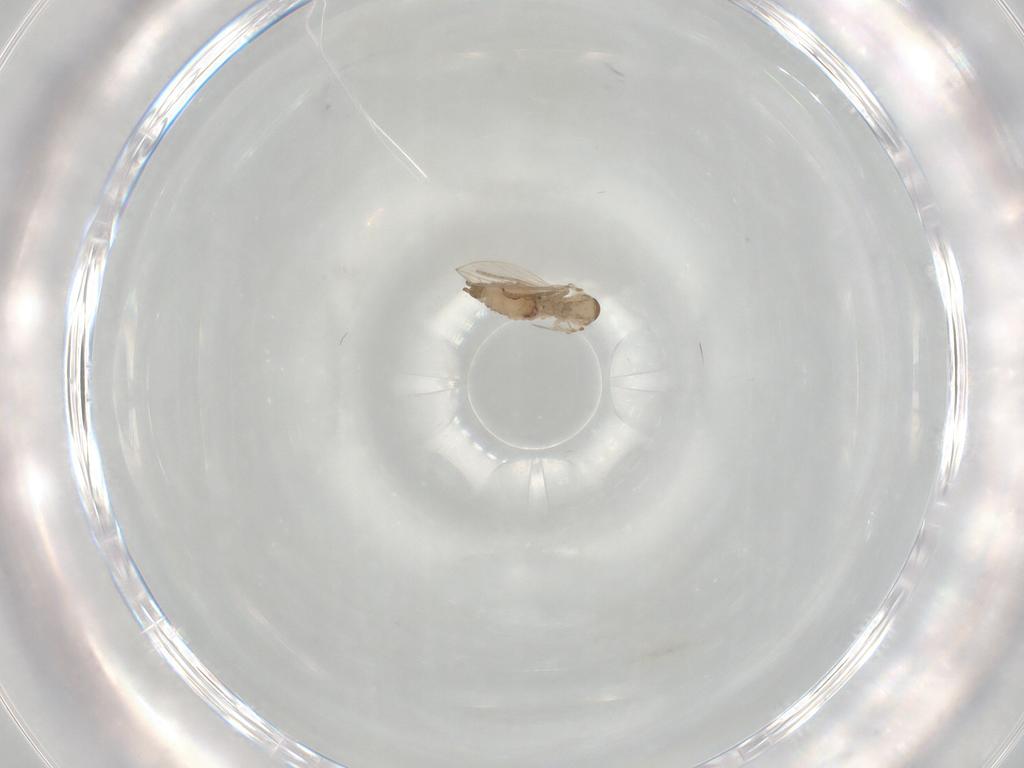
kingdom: Animalia
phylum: Arthropoda
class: Insecta
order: Diptera
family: Psychodidae
